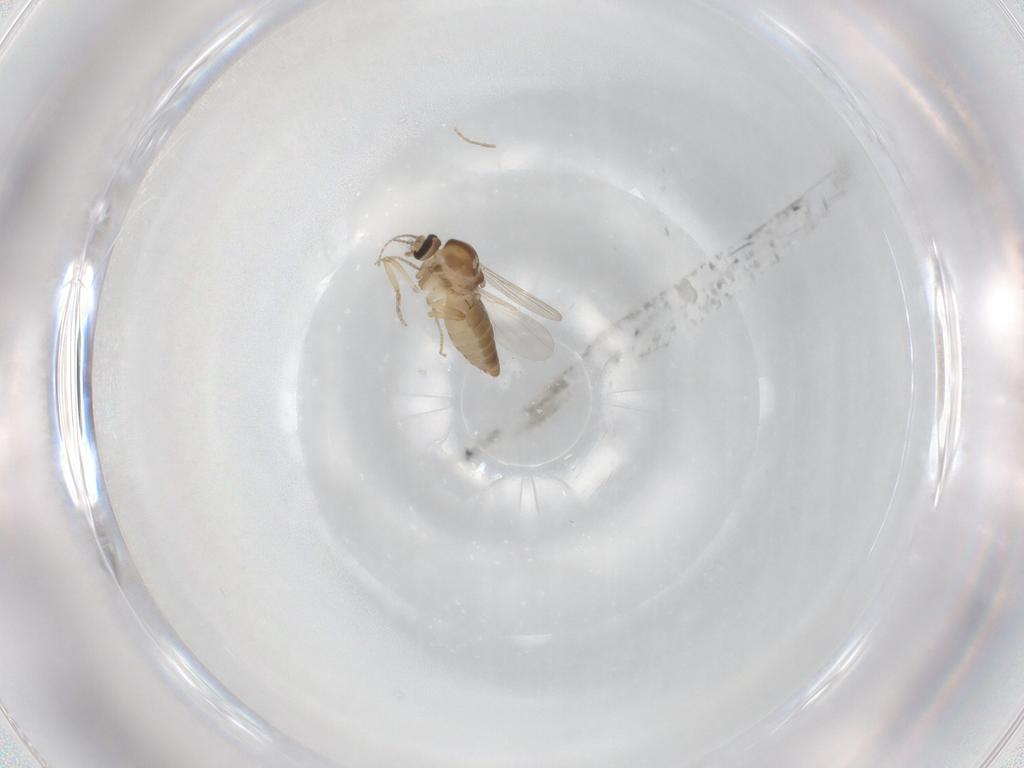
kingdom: Animalia
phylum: Arthropoda
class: Insecta
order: Diptera
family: Ceratopogonidae
